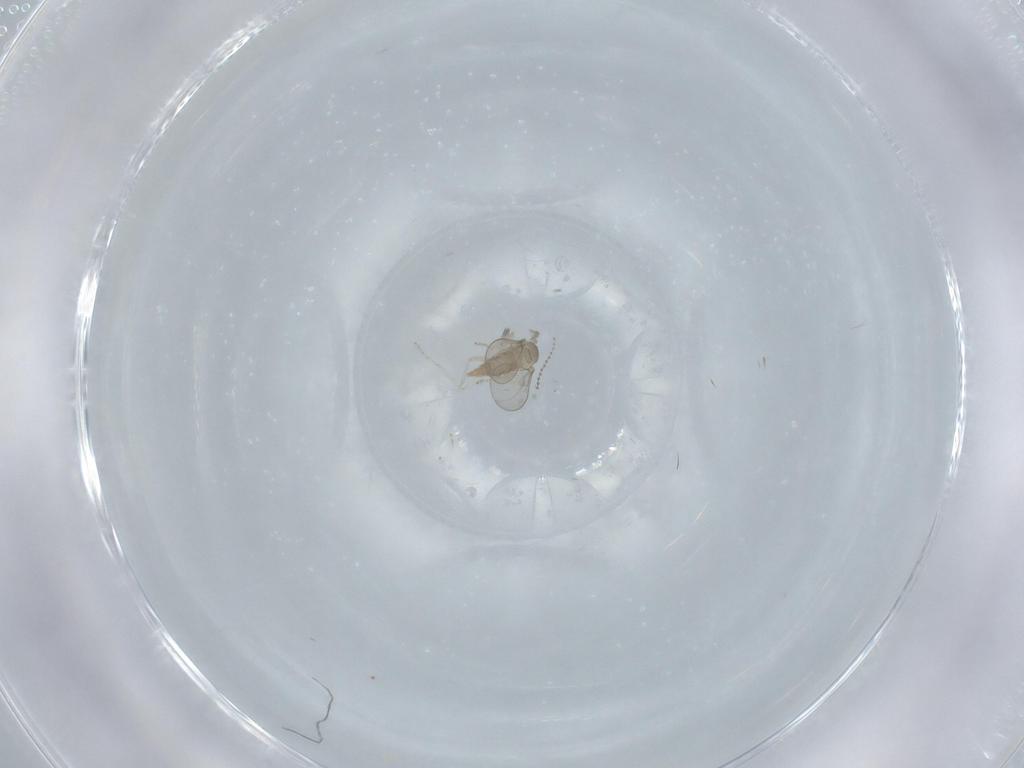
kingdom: Animalia
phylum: Arthropoda
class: Insecta
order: Diptera
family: Cecidomyiidae
